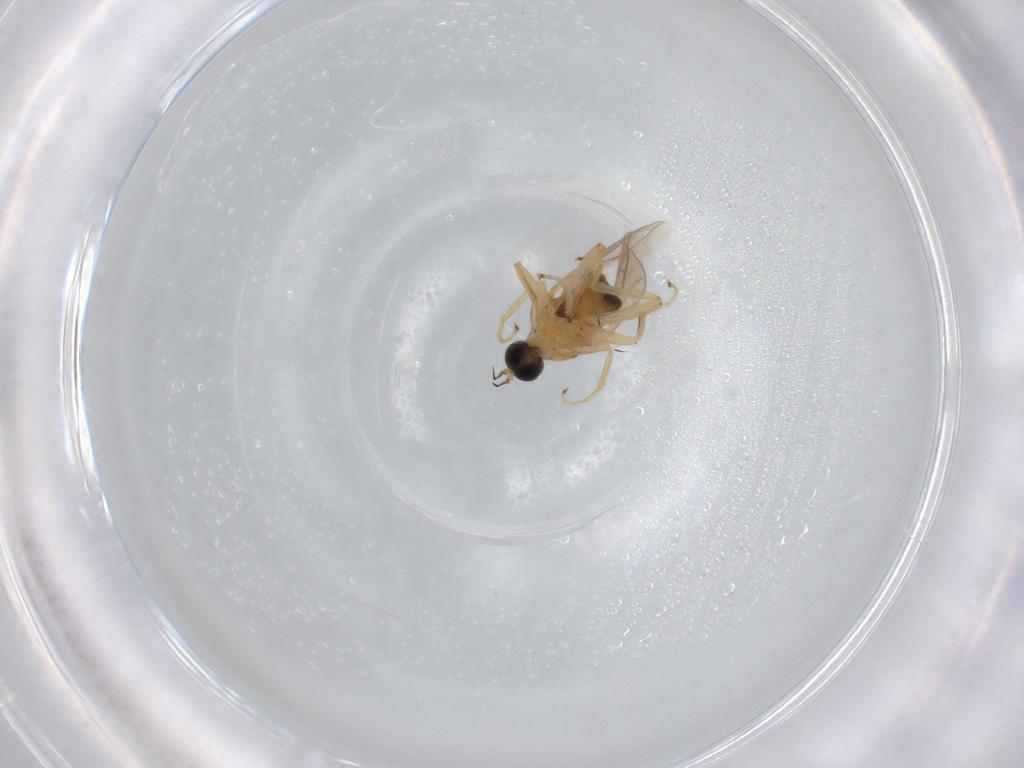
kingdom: Animalia
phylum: Arthropoda
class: Insecta
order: Diptera
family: Hybotidae
